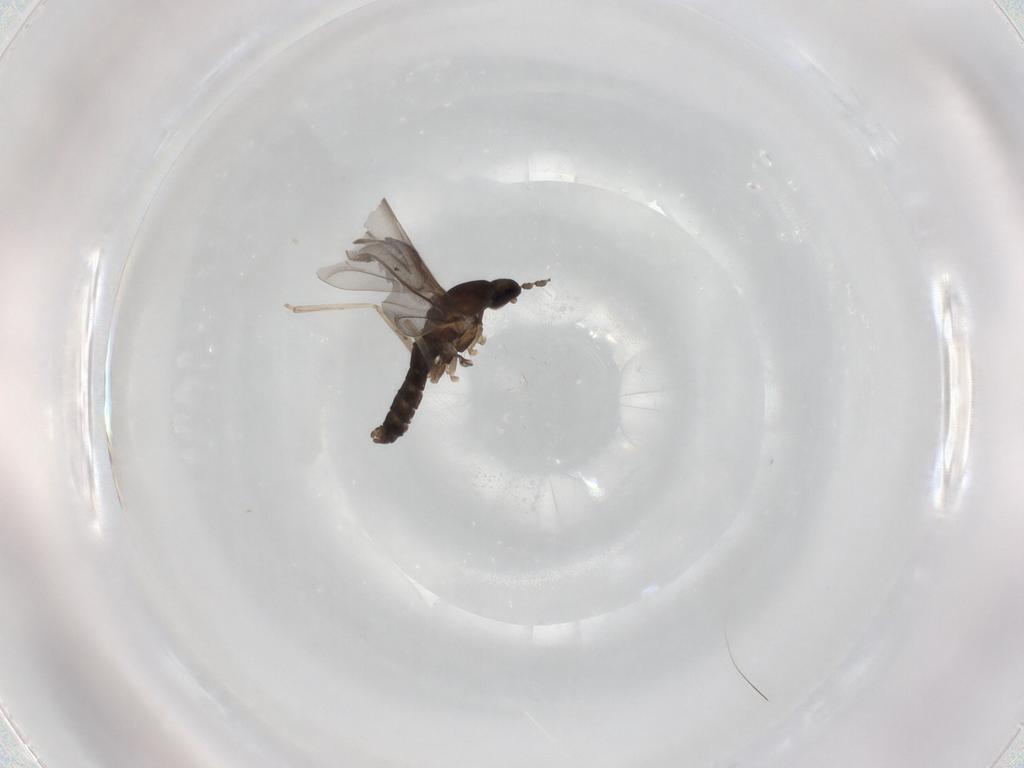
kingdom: Animalia
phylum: Arthropoda
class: Insecta
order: Diptera
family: Cecidomyiidae
